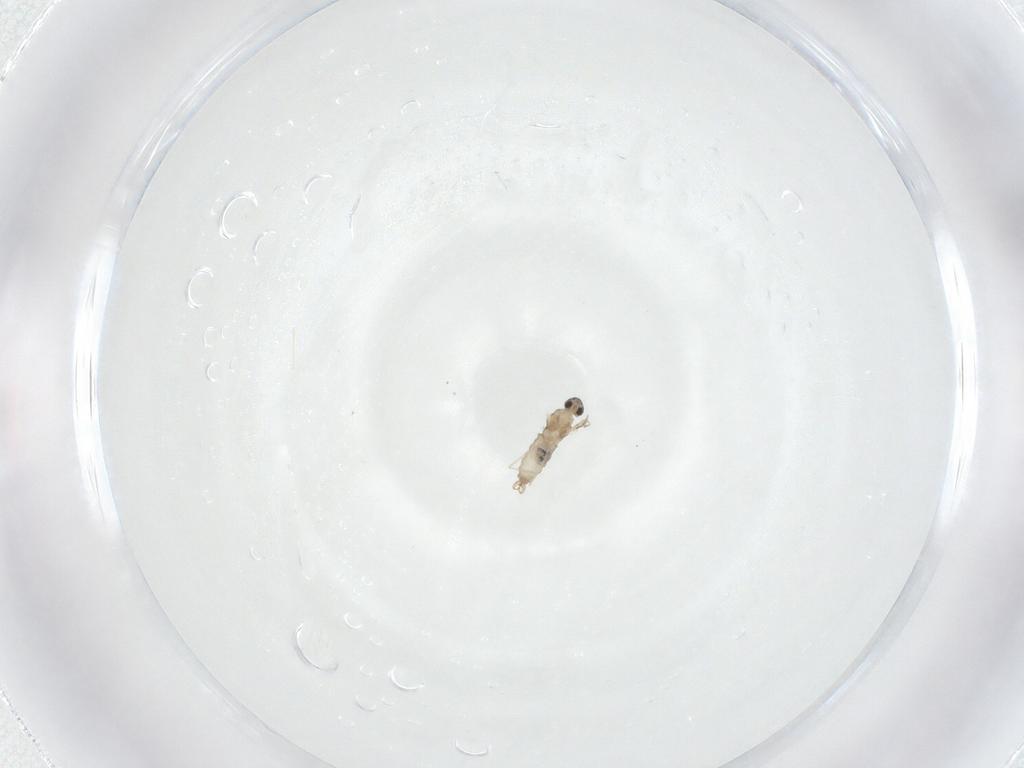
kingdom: Animalia
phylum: Arthropoda
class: Insecta
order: Diptera
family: Cecidomyiidae
